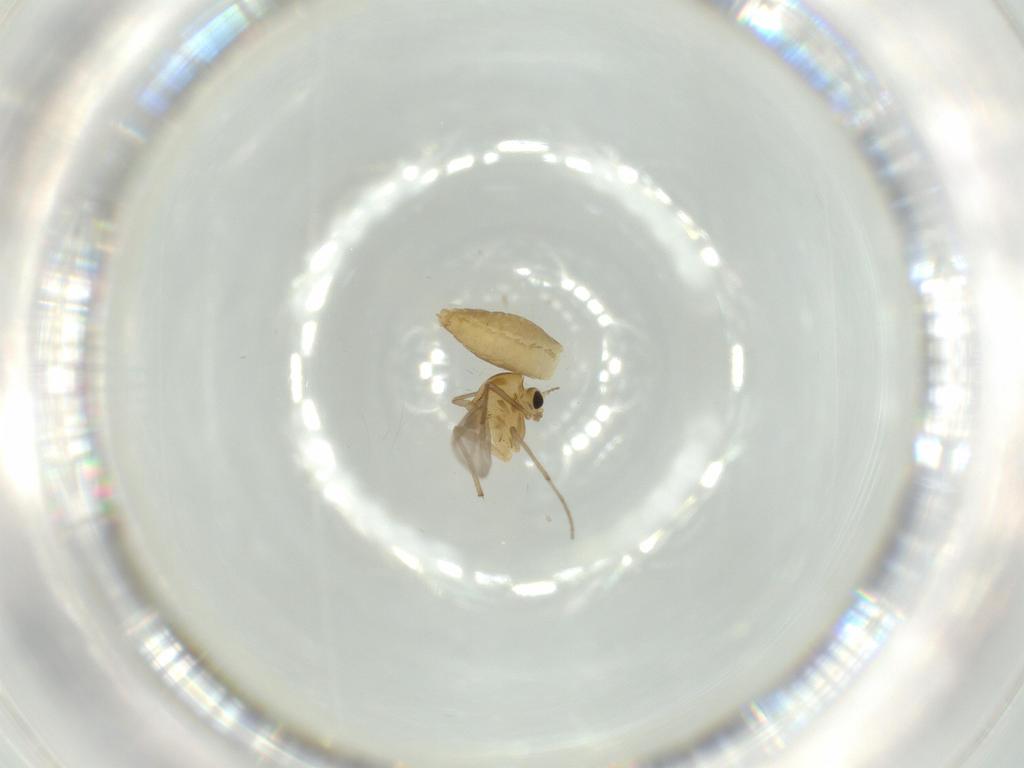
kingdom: Animalia
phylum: Arthropoda
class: Insecta
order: Diptera
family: Chironomidae
